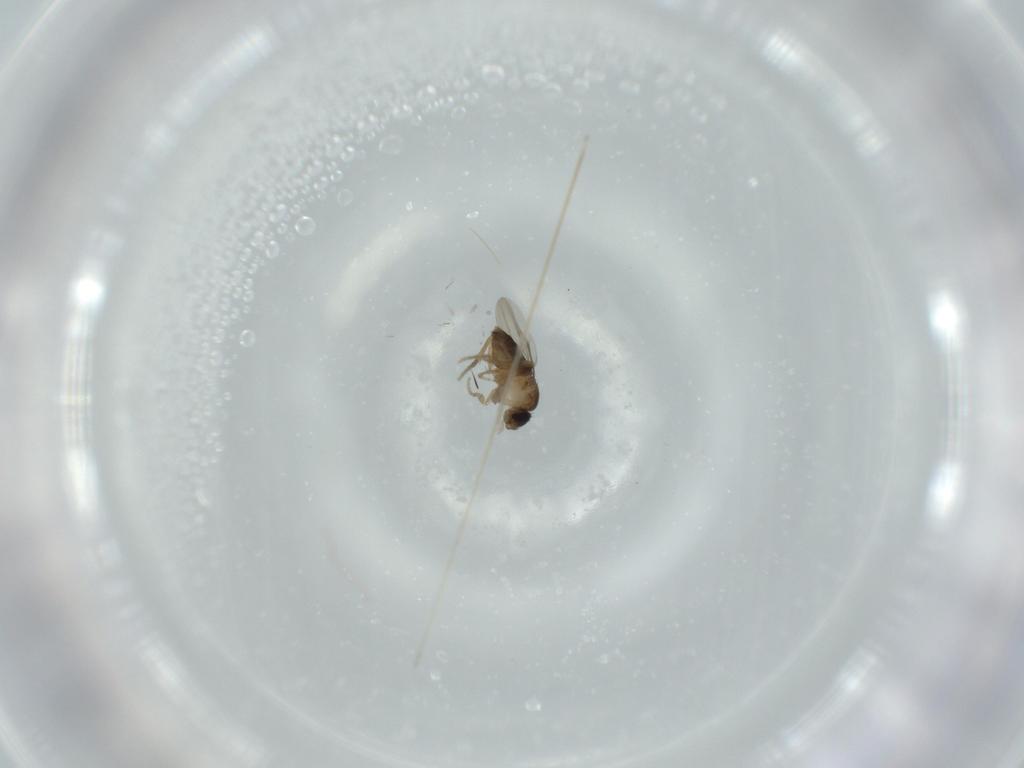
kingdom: Animalia
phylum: Arthropoda
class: Insecta
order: Diptera
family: Phoridae
